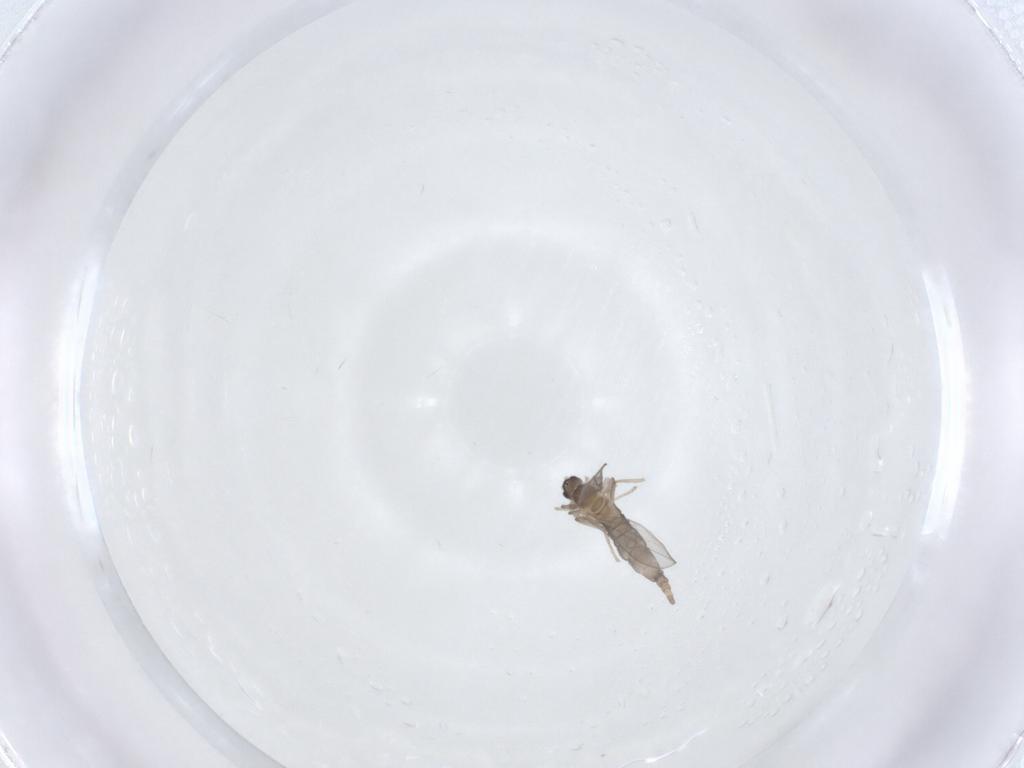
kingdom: Animalia
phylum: Arthropoda
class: Insecta
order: Diptera
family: Cecidomyiidae
